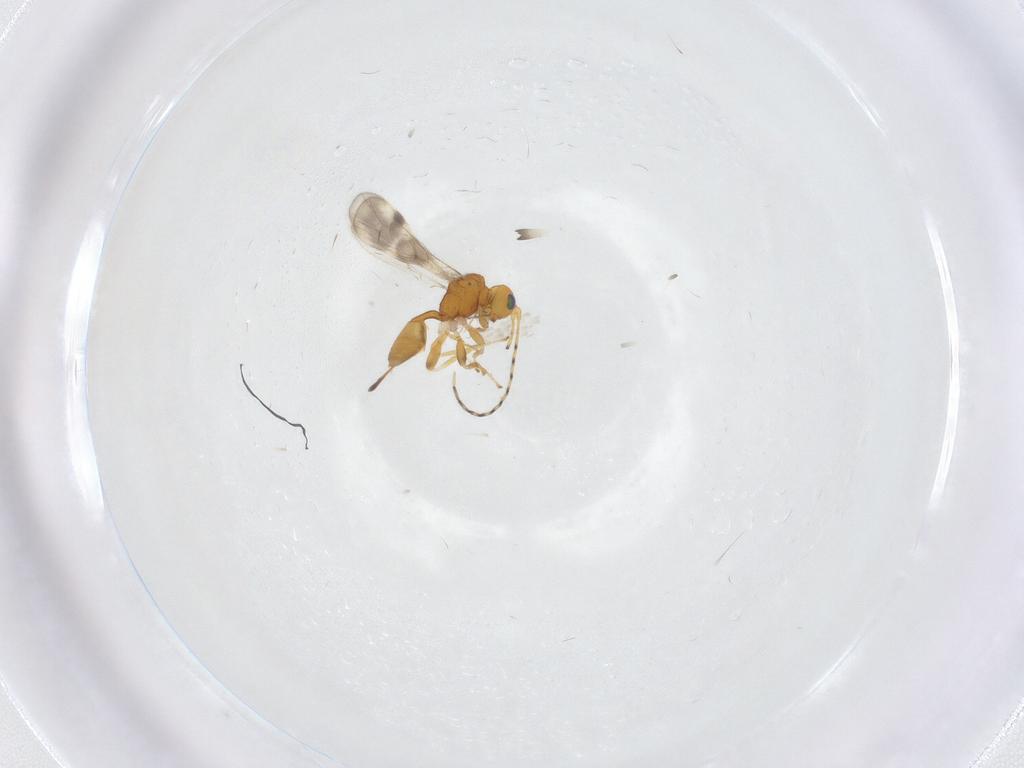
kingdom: Animalia
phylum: Arthropoda
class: Insecta
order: Hymenoptera
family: Braconidae
